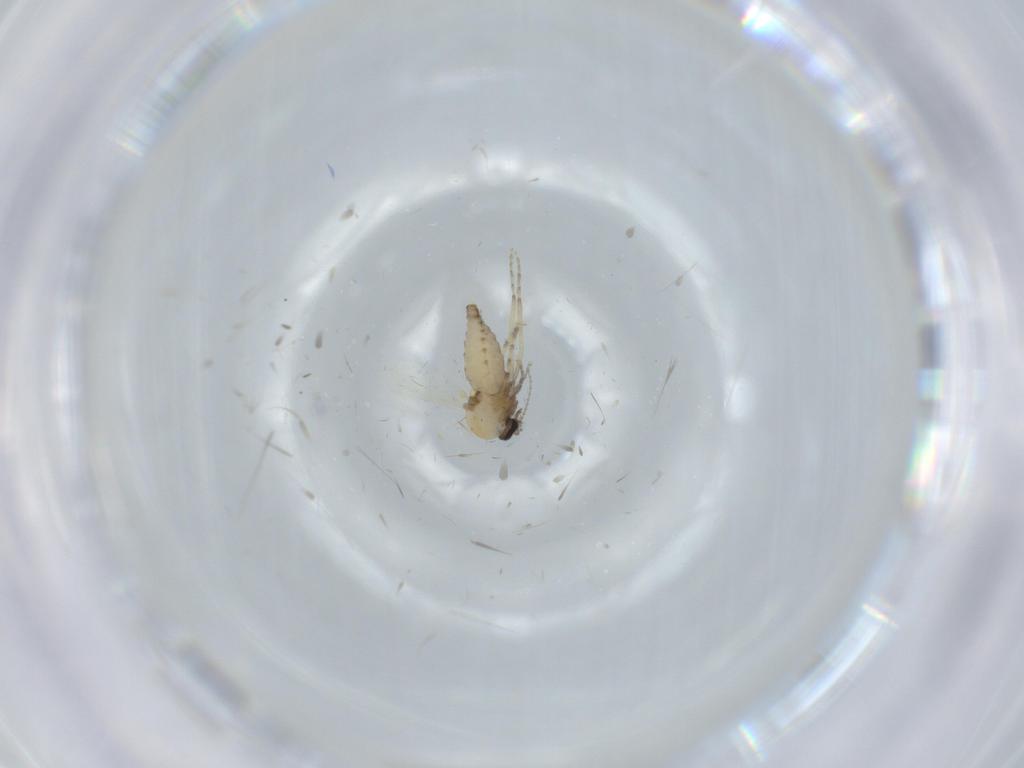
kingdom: Animalia
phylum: Arthropoda
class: Insecta
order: Diptera
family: Ceratopogonidae
